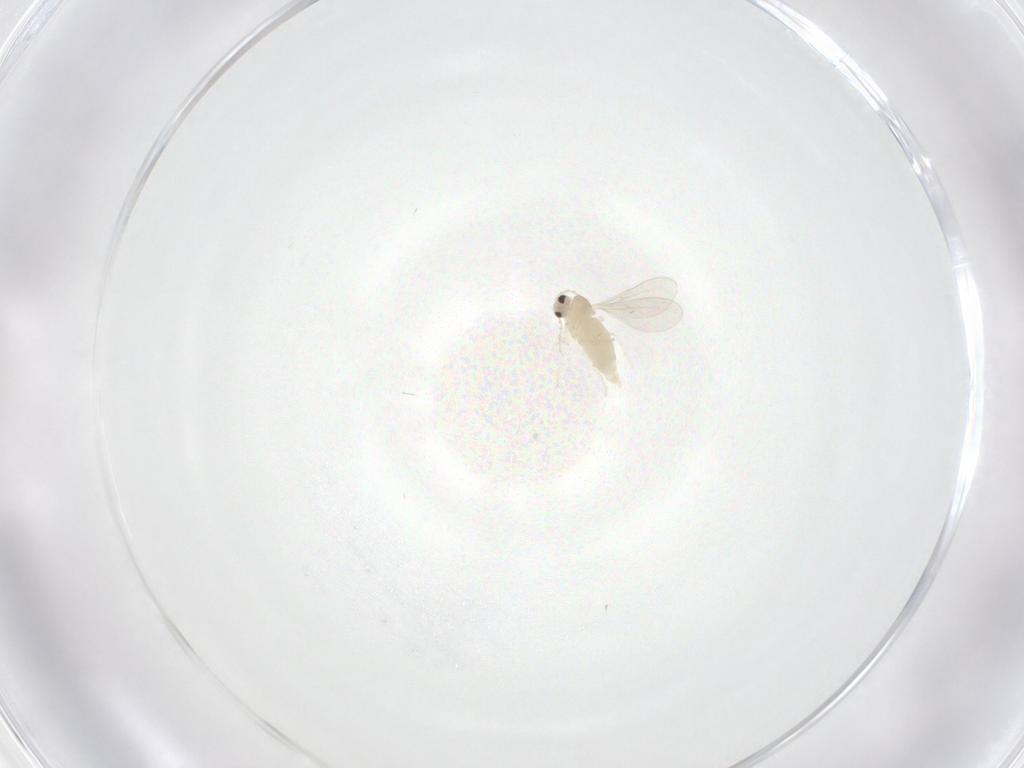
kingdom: Animalia
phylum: Arthropoda
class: Insecta
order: Diptera
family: Cecidomyiidae
